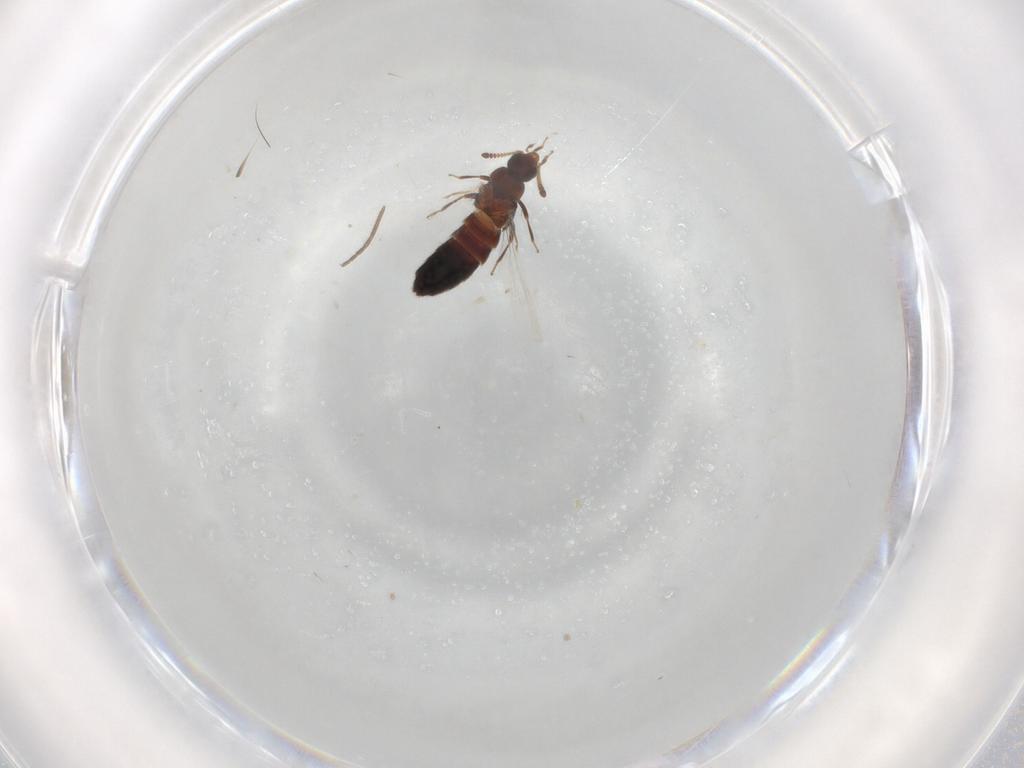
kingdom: Animalia
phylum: Arthropoda
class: Insecta
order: Coleoptera
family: Staphylinidae
